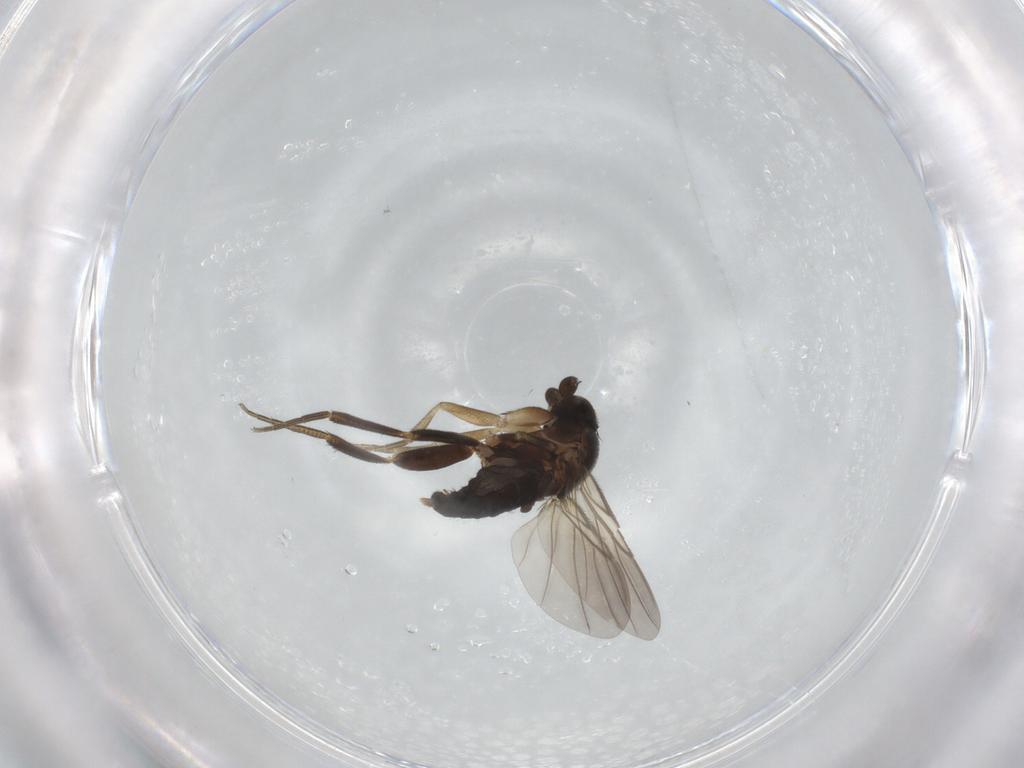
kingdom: Animalia
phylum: Arthropoda
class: Insecta
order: Diptera
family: Phoridae
